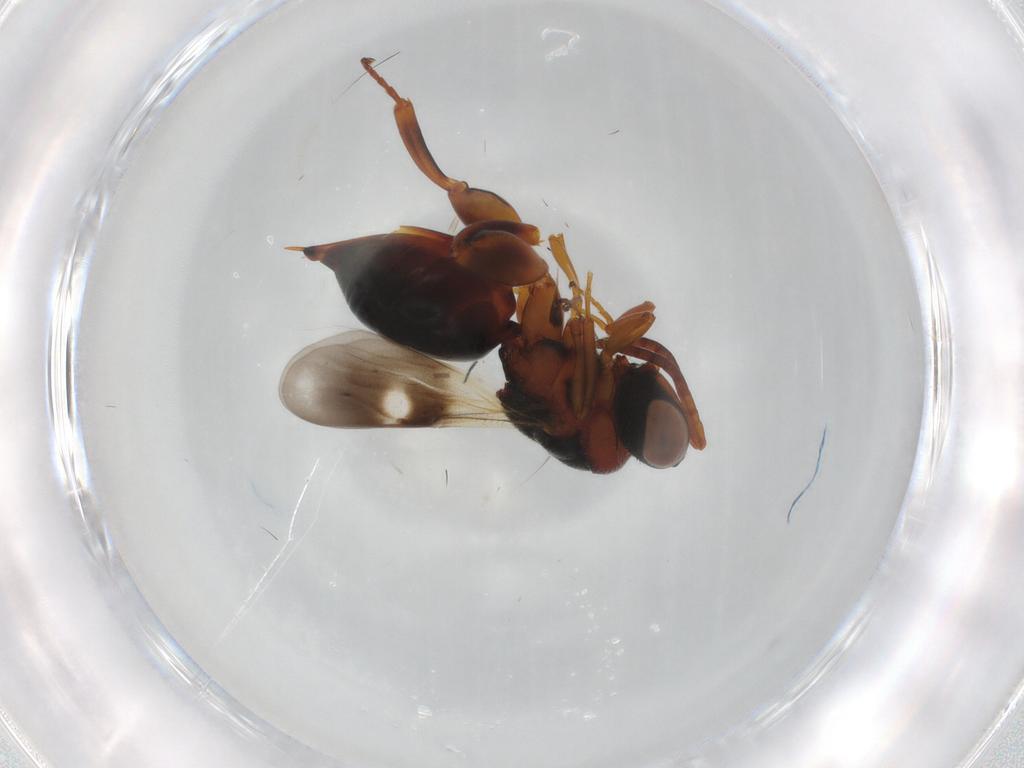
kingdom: Animalia
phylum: Arthropoda
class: Insecta
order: Hymenoptera
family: Chalcididae
